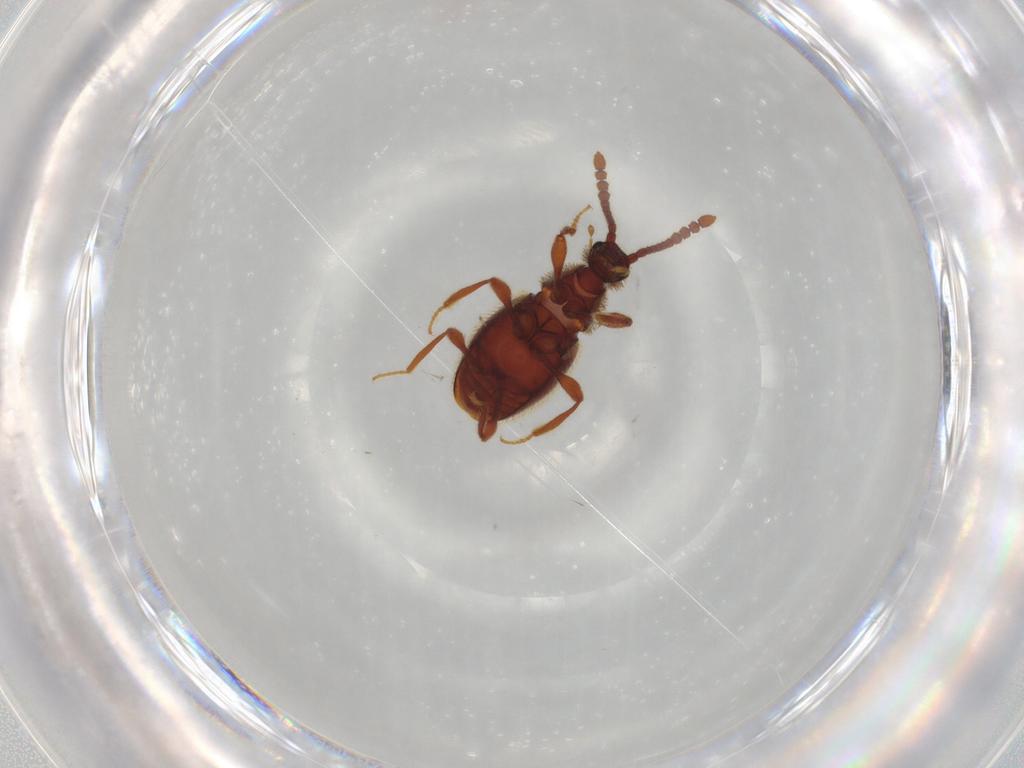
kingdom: Animalia
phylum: Arthropoda
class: Insecta
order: Coleoptera
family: Staphylinidae
